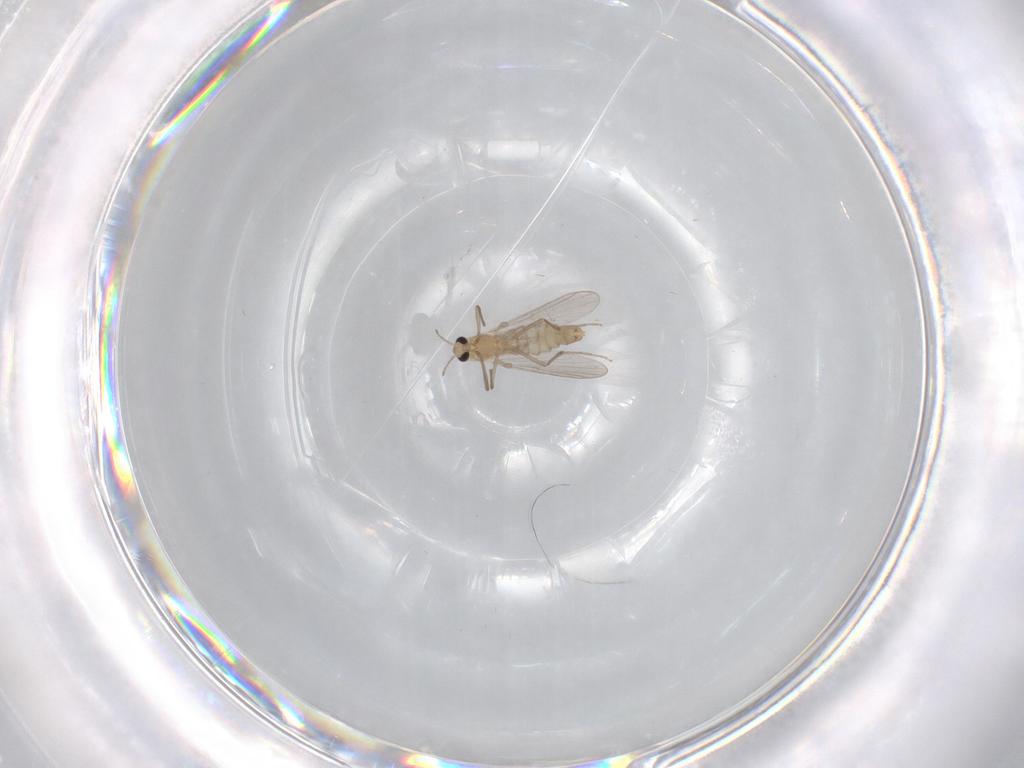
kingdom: Animalia
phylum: Arthropoda
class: Insecta
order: Diptera
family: Chironomidae
